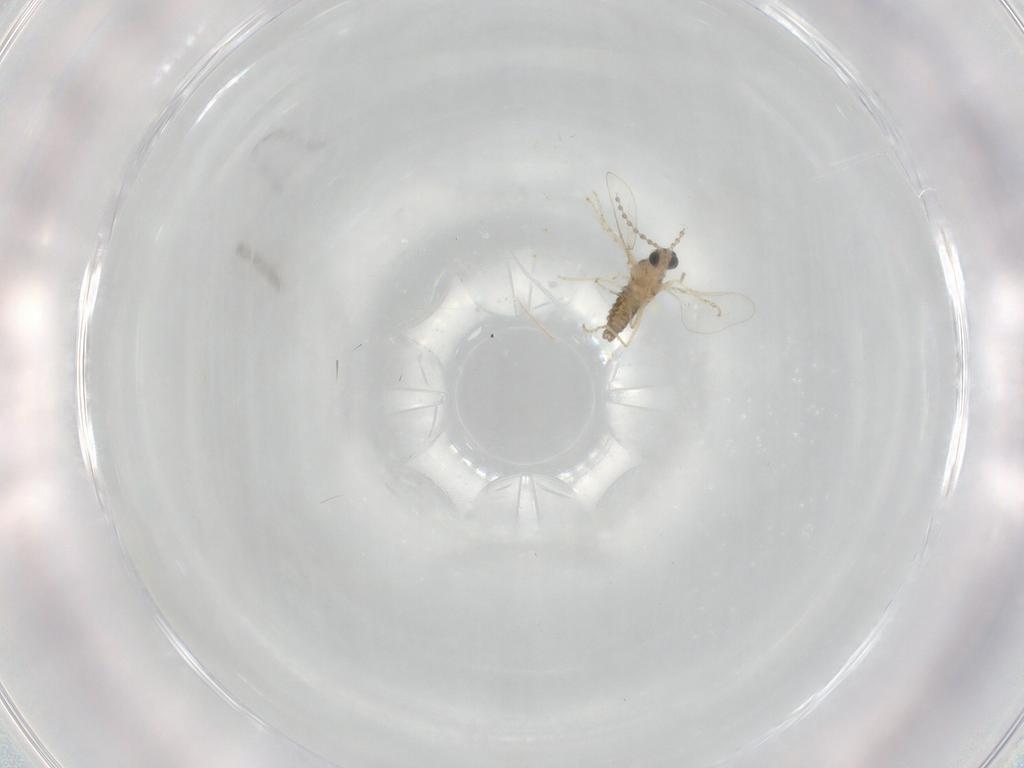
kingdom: Animalia
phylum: Arthropoda
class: Insecta
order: Diptera
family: Cecidomyiidae
